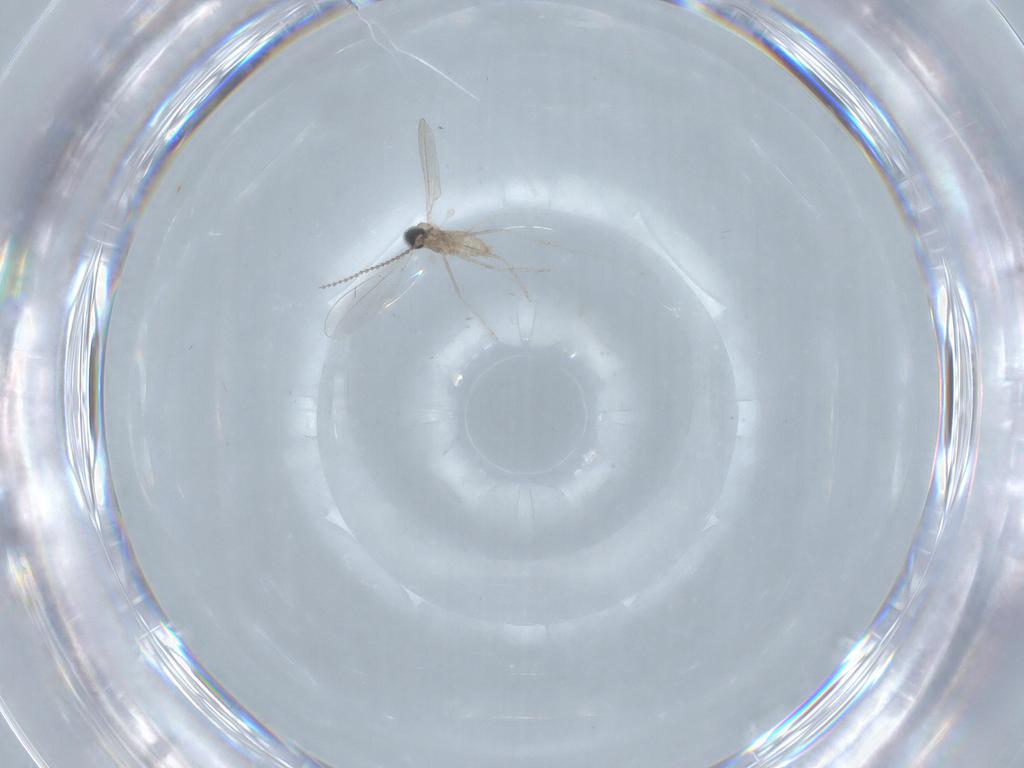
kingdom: Animalia
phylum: Arthropoda
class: Insecta
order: Diptera
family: Cecidomyiidae
